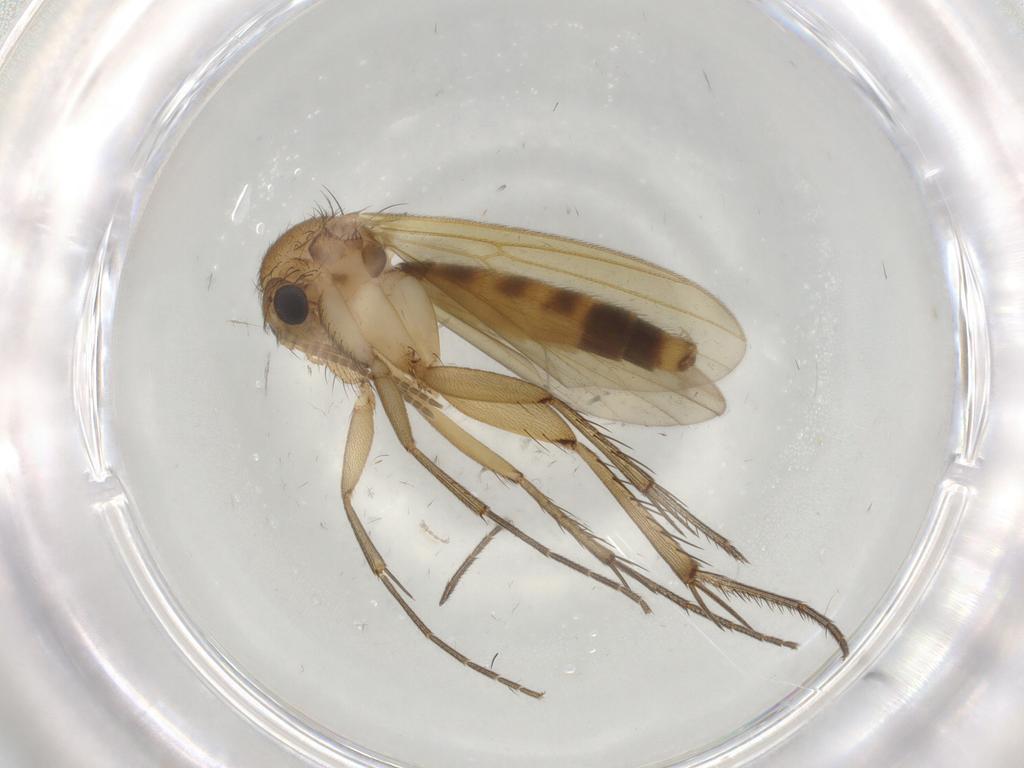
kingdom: Animalia
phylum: Arthropoda
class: Insecta
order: Diptera
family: Mycetophilidae
